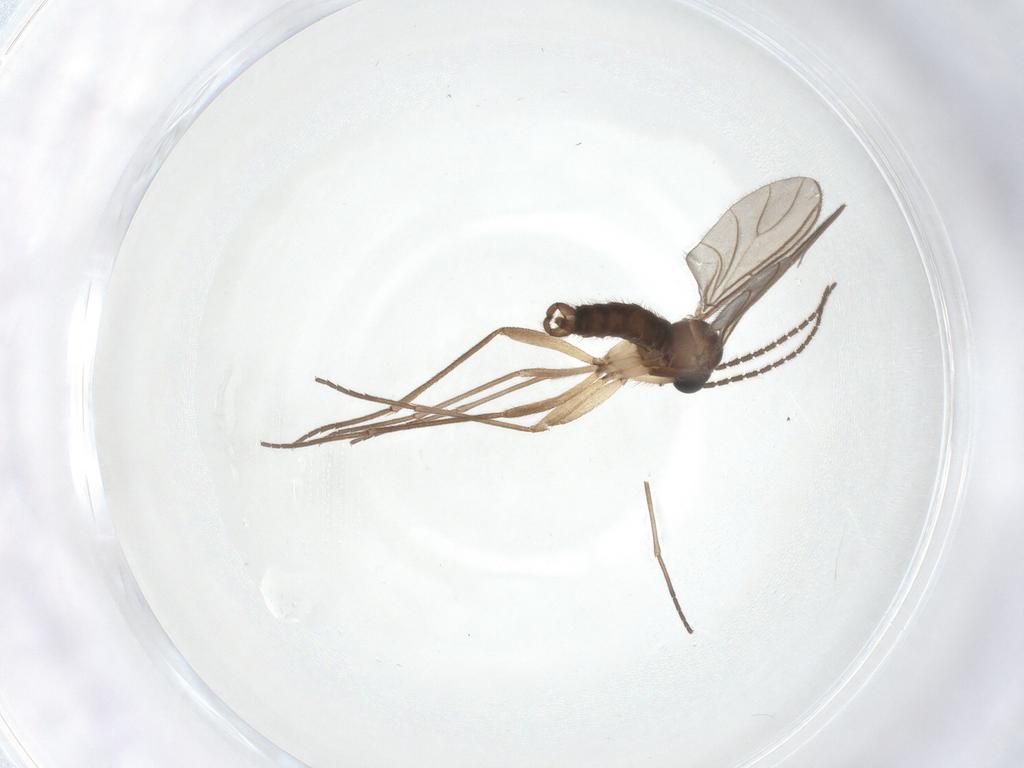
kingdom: Animalia
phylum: Arthropoda
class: Insecta
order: Diptera
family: Sciaridae
